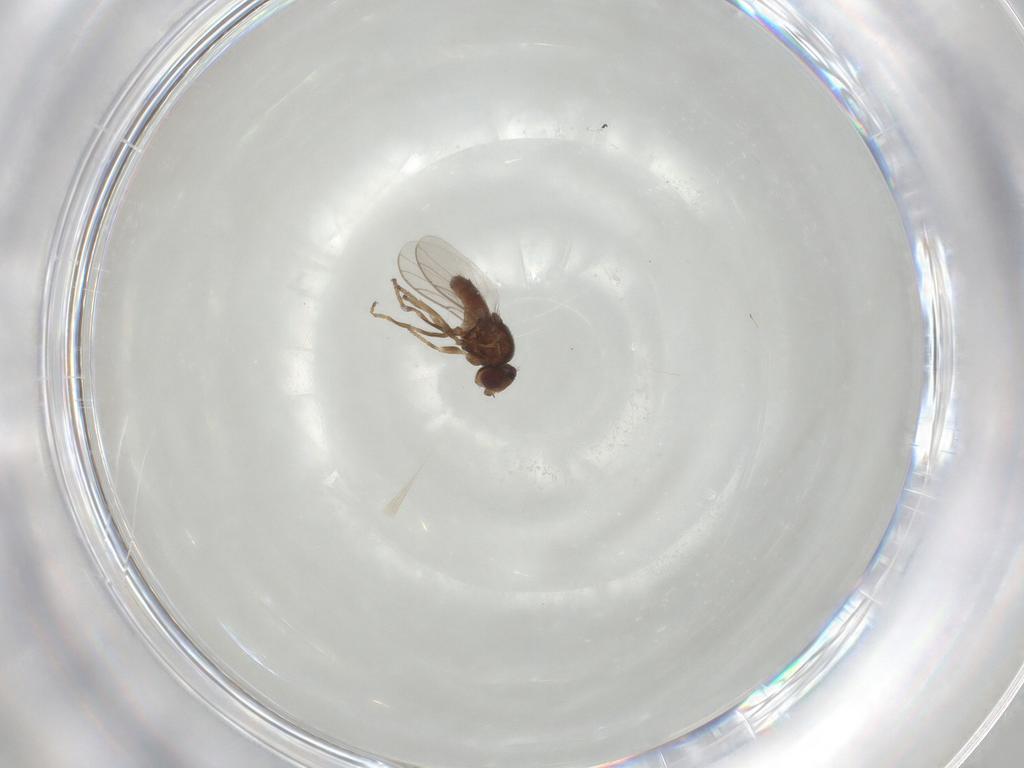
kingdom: Animalia
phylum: Arthropoda
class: Insecta
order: Diptera
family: Chloropidae
